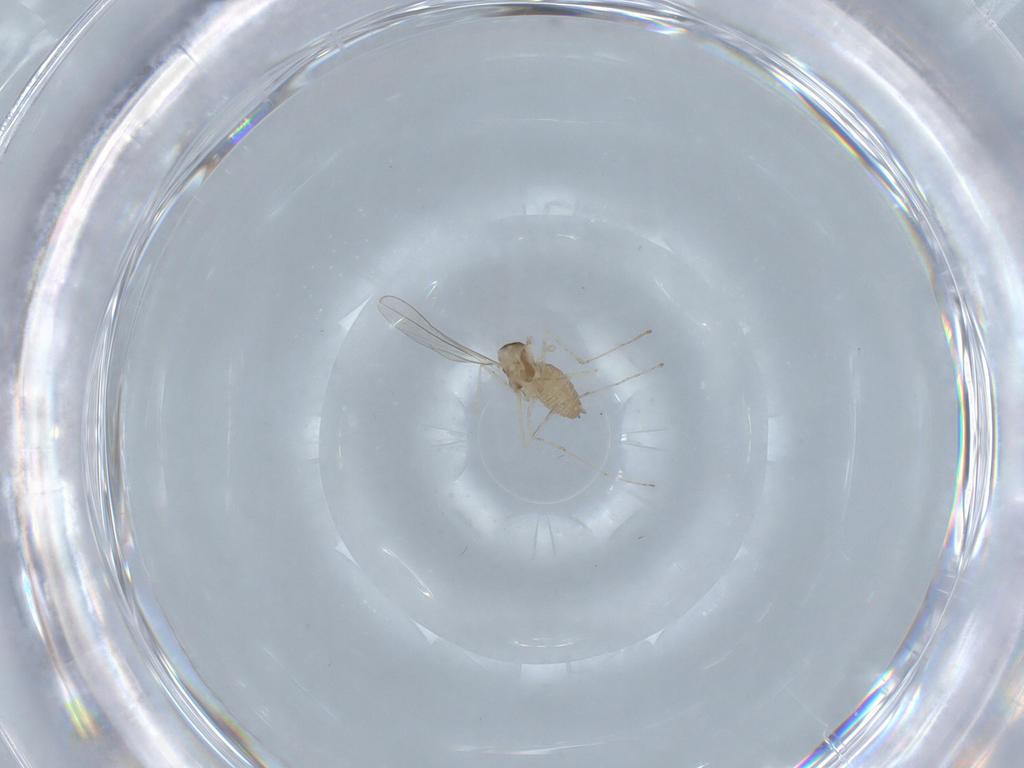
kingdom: Animalia
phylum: Arthropoda
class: Insecta
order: Diptera
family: Cecidomyiidae
